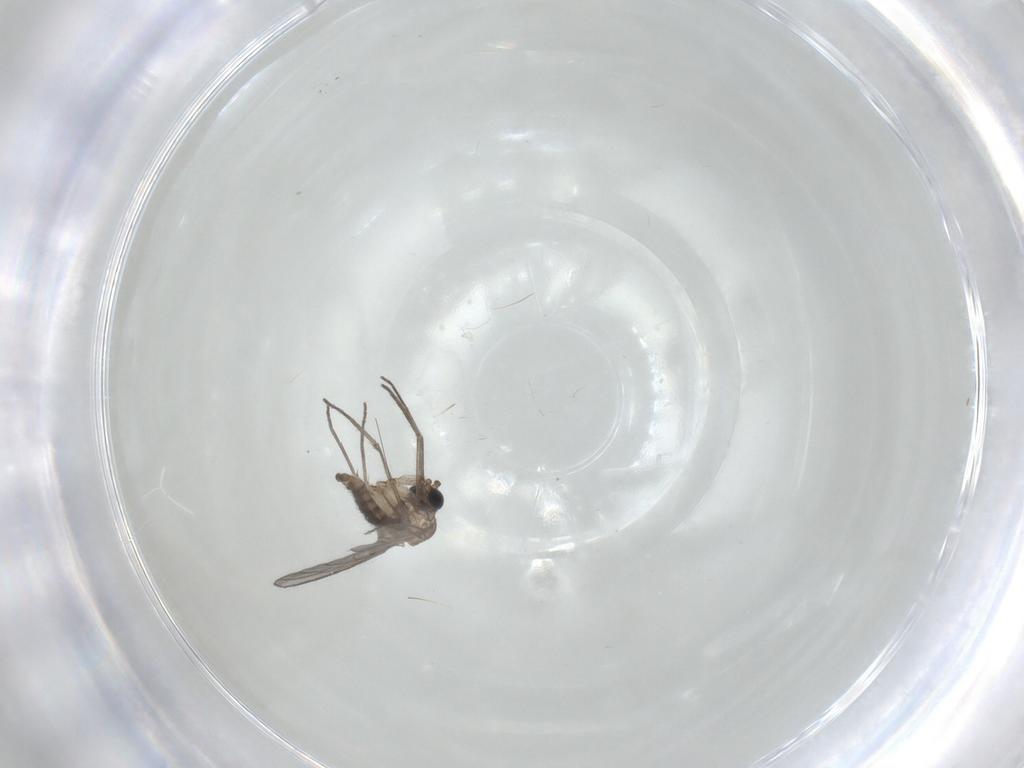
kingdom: Animalia
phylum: Arthropoda
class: Insecta
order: Diptera
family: Sciaridae
